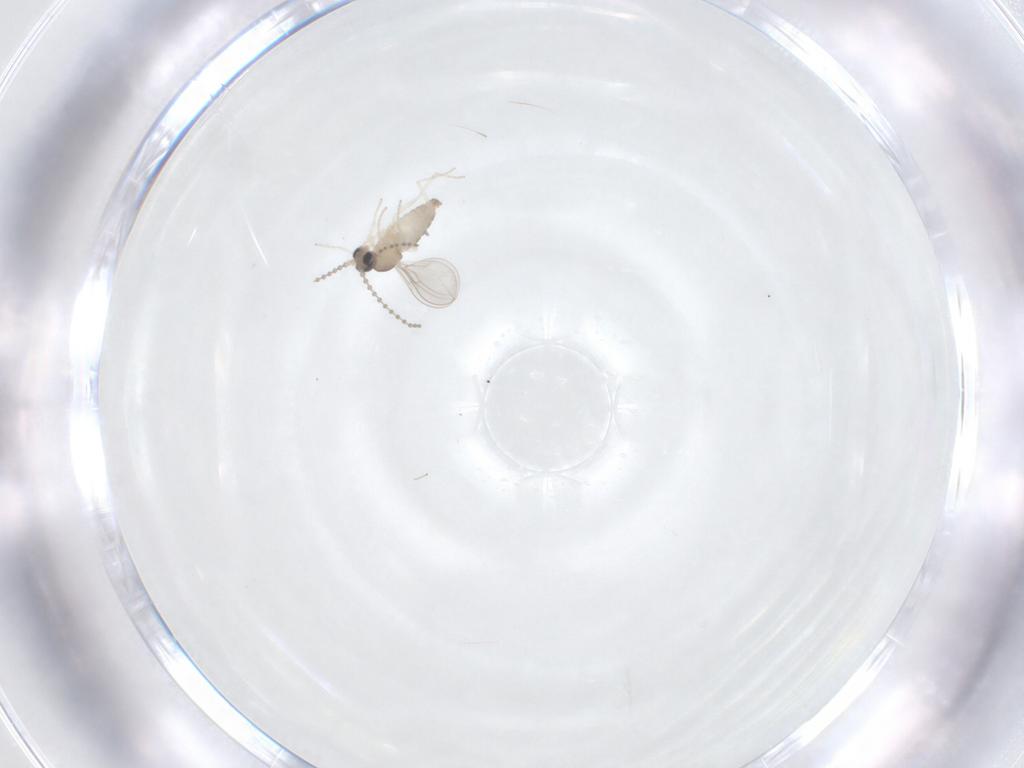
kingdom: Animalia
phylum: Arthropoda
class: Insecta
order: Diptera
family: Cecidomyiidae
